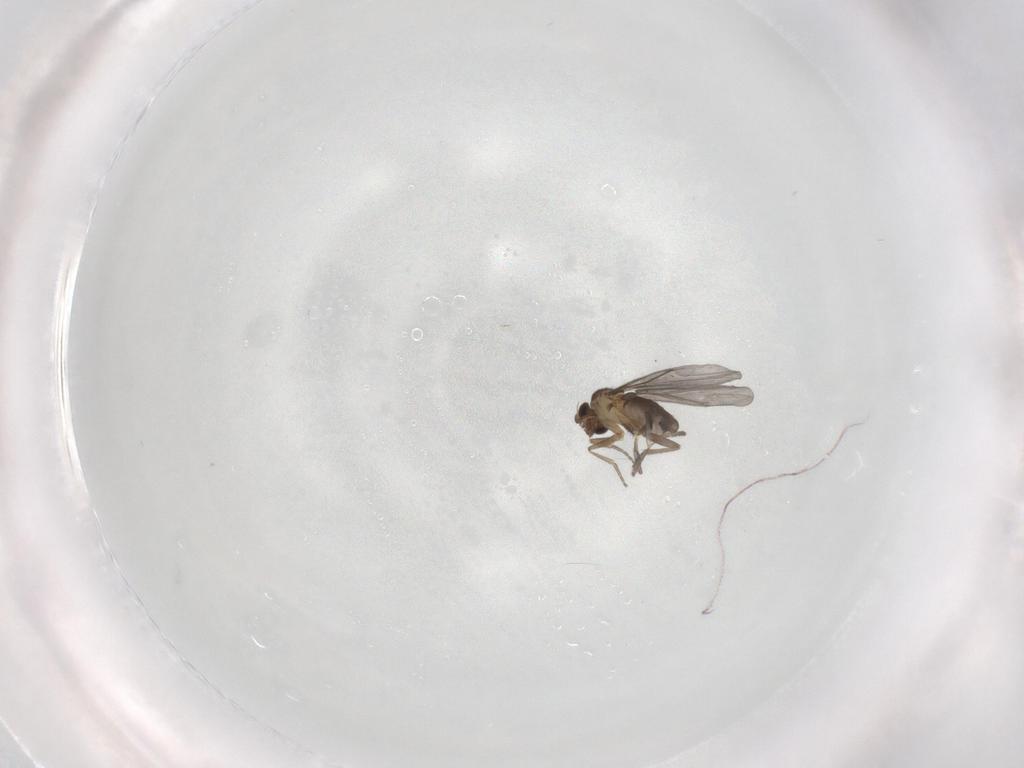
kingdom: Animalia
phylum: Arthropoda
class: Insecta
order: Diptera
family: Phoridae
